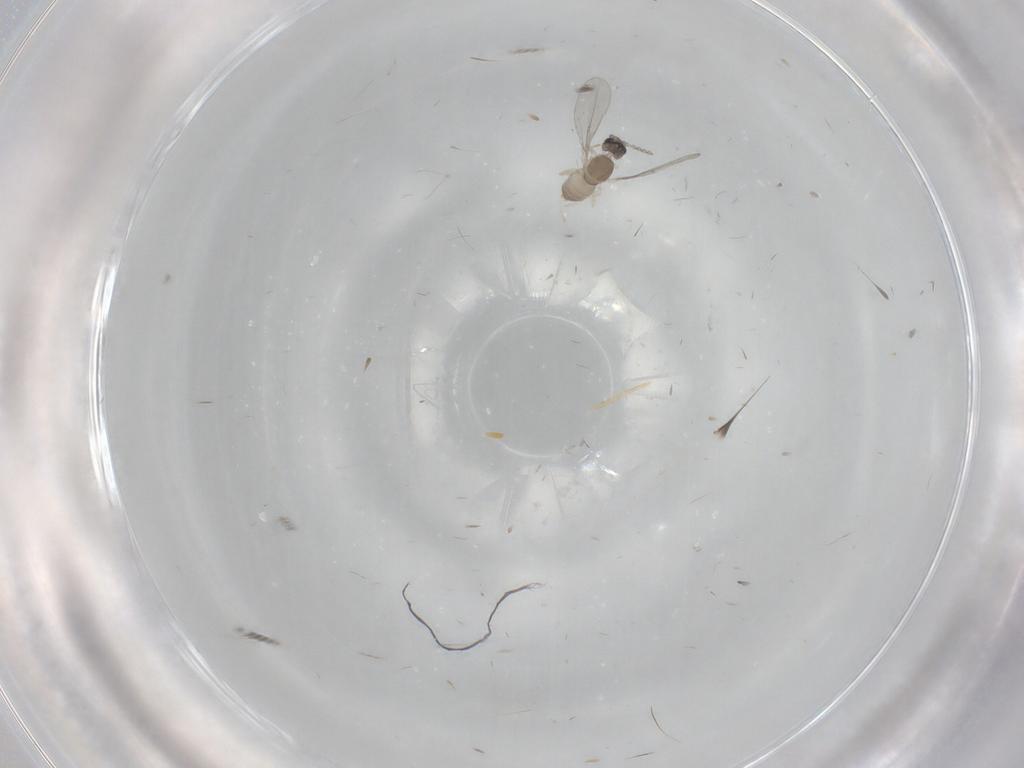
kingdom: Animalia
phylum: Arthropoda
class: Insecta
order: Diptera
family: Cecidomyiidae
